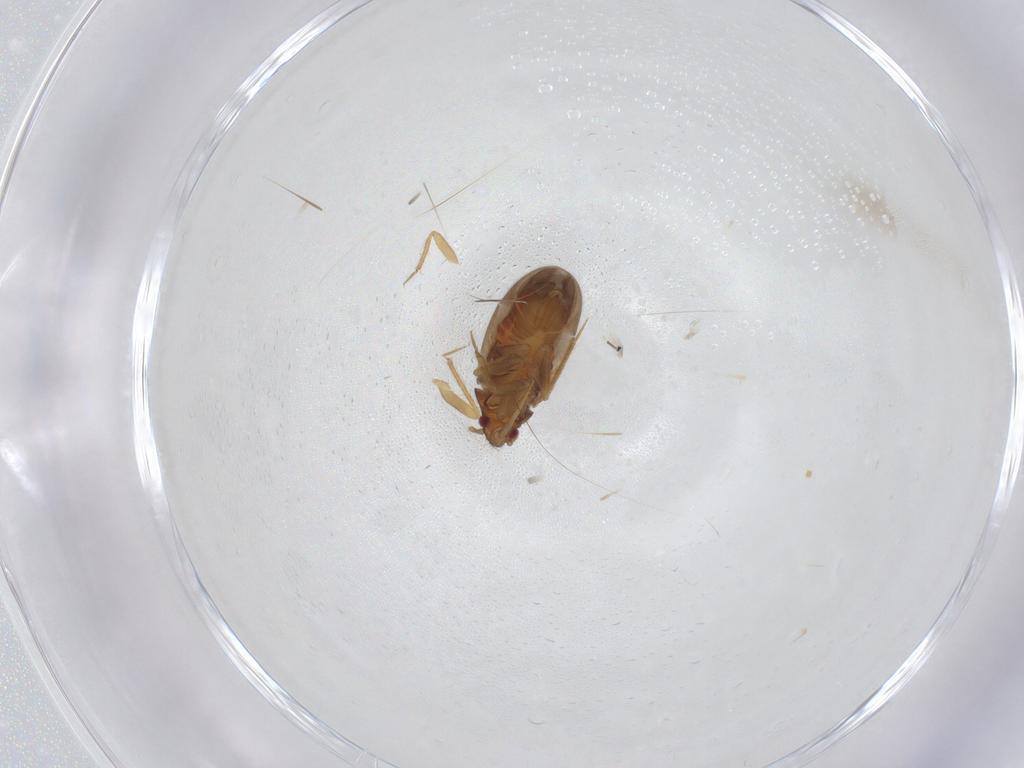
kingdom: Animalia
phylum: Arthropoda
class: Insecta
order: Hemiptera
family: Ceratocombidae
